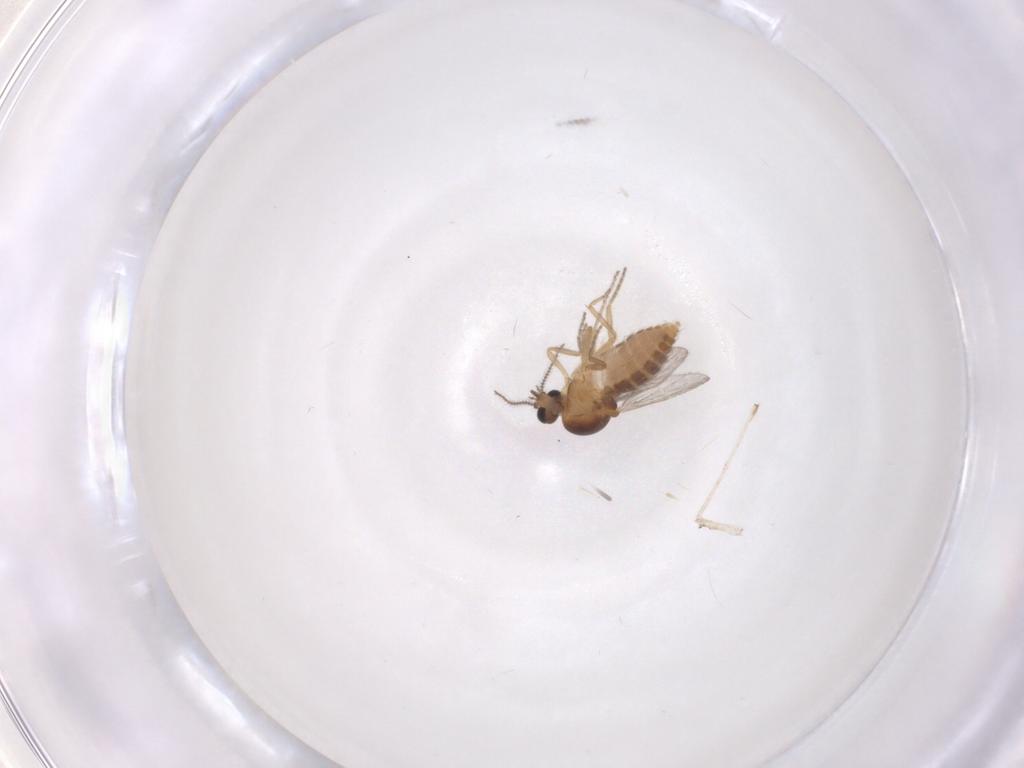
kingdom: Animalia
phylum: Arthropoda
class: Insecta
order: Diptera
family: Ceratopogonidae
